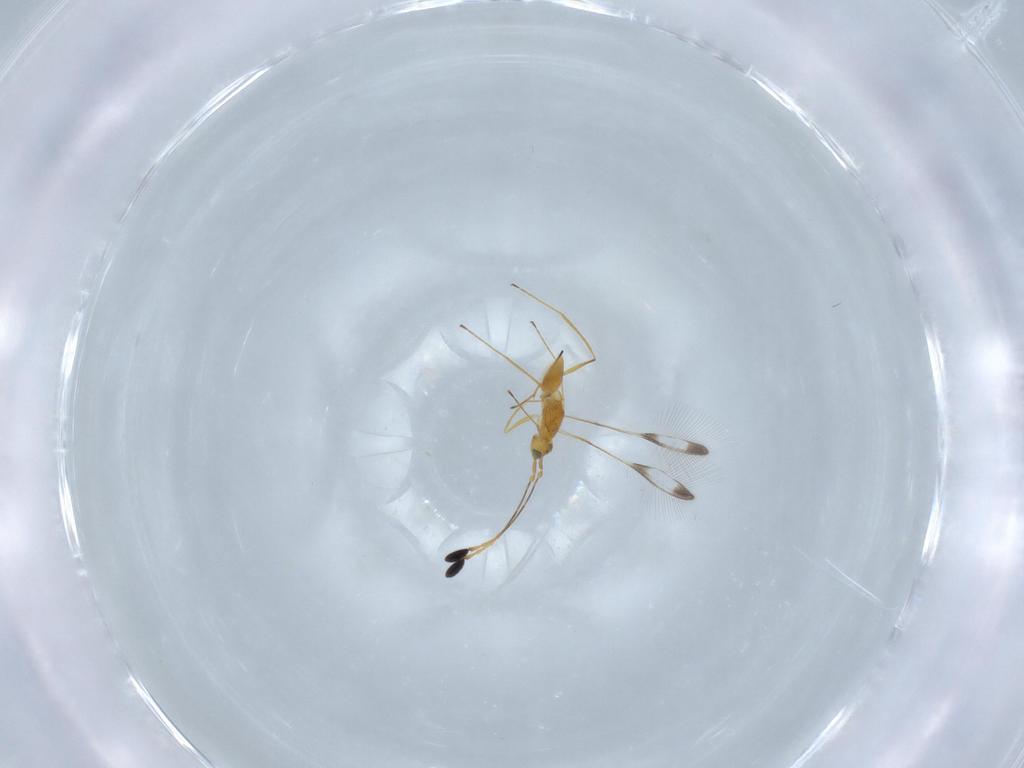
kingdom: Animalia
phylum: Arthropoda
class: Insecta
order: Hymenoptera
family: Mymaridae
